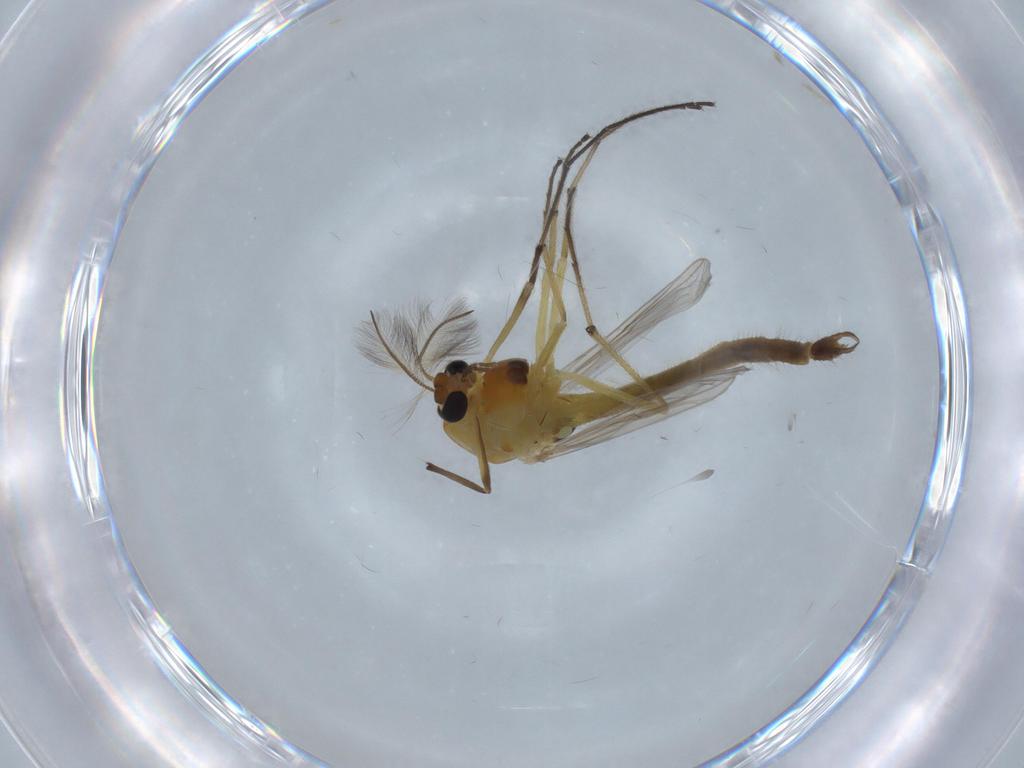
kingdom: Animalia
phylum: Arthropoda
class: Insecta
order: Diptera
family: Chironomidae
